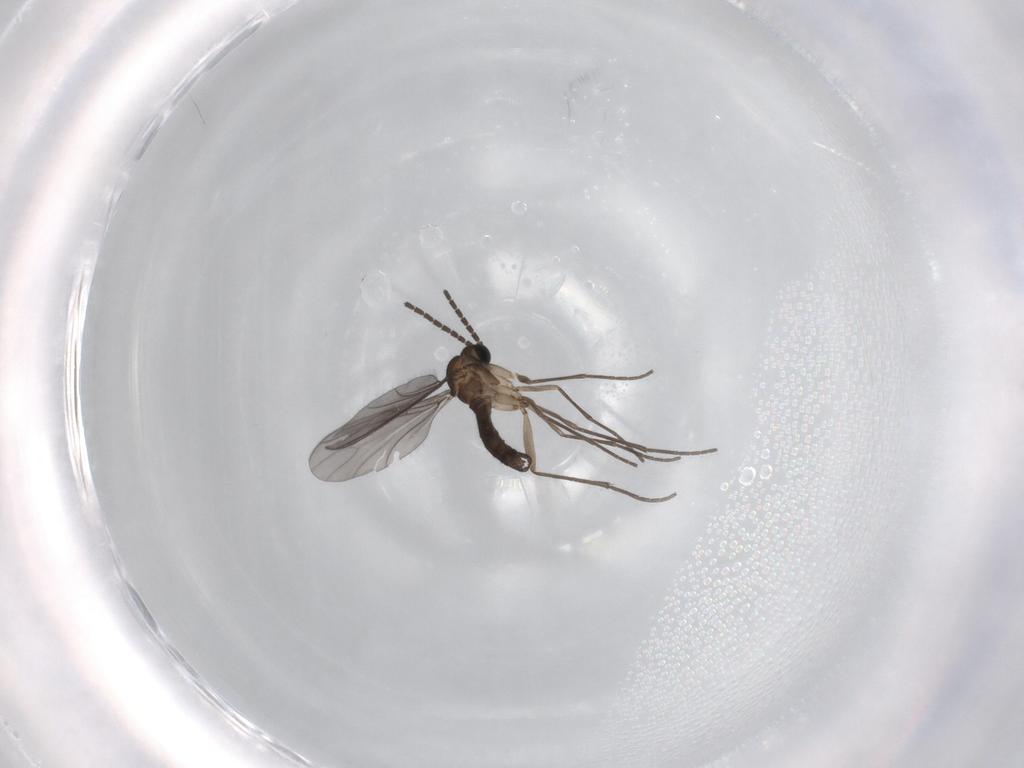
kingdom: Animalia
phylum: Arthropoda
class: Insecta
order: Diptera
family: Sciaridae
